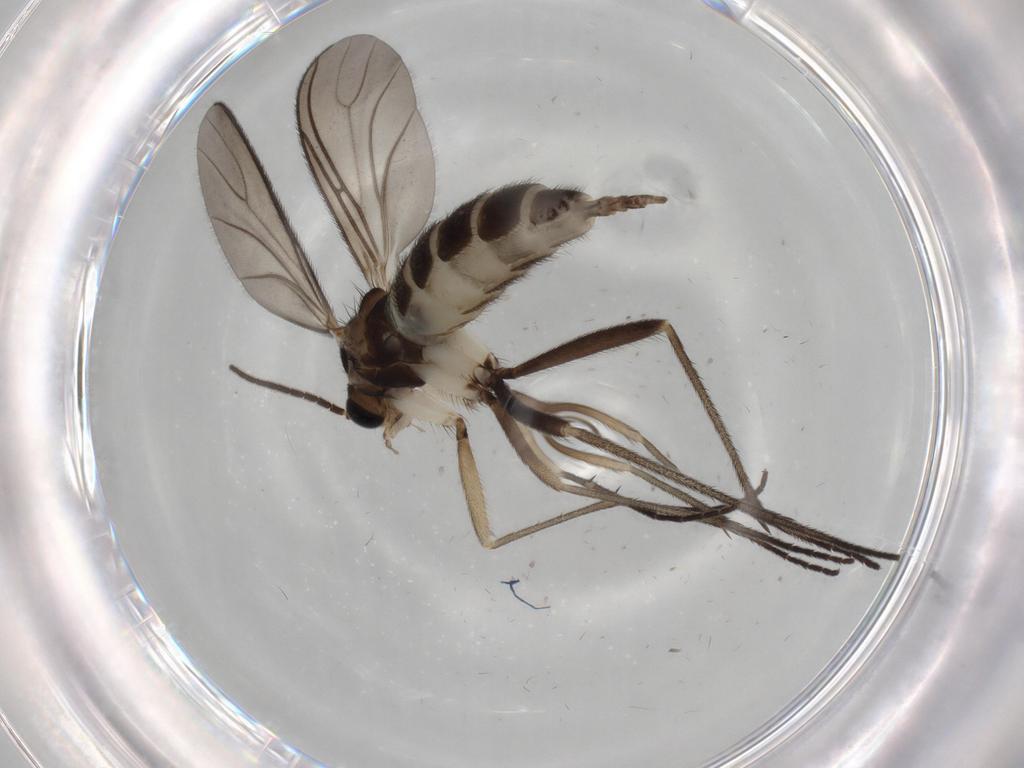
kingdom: Animalia
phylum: Arthropoda
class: Insecta
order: Diptera
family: Sciaridae
